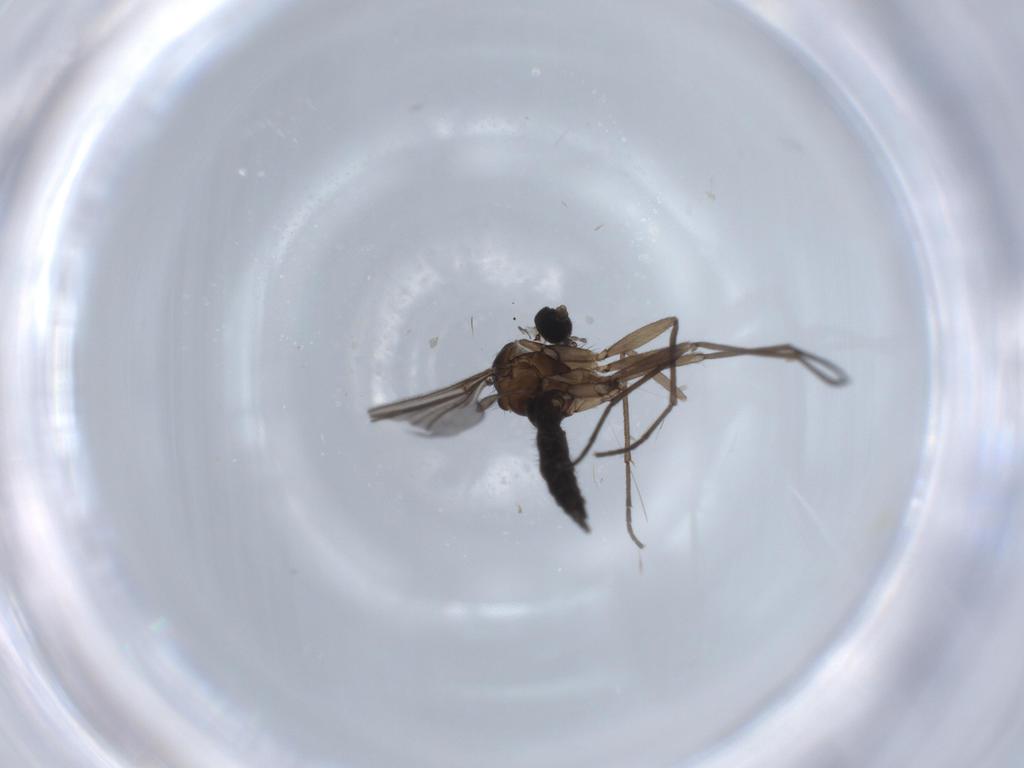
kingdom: Animalia
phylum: Arthropoda
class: Insecta
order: Diptera
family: Sciaridae
